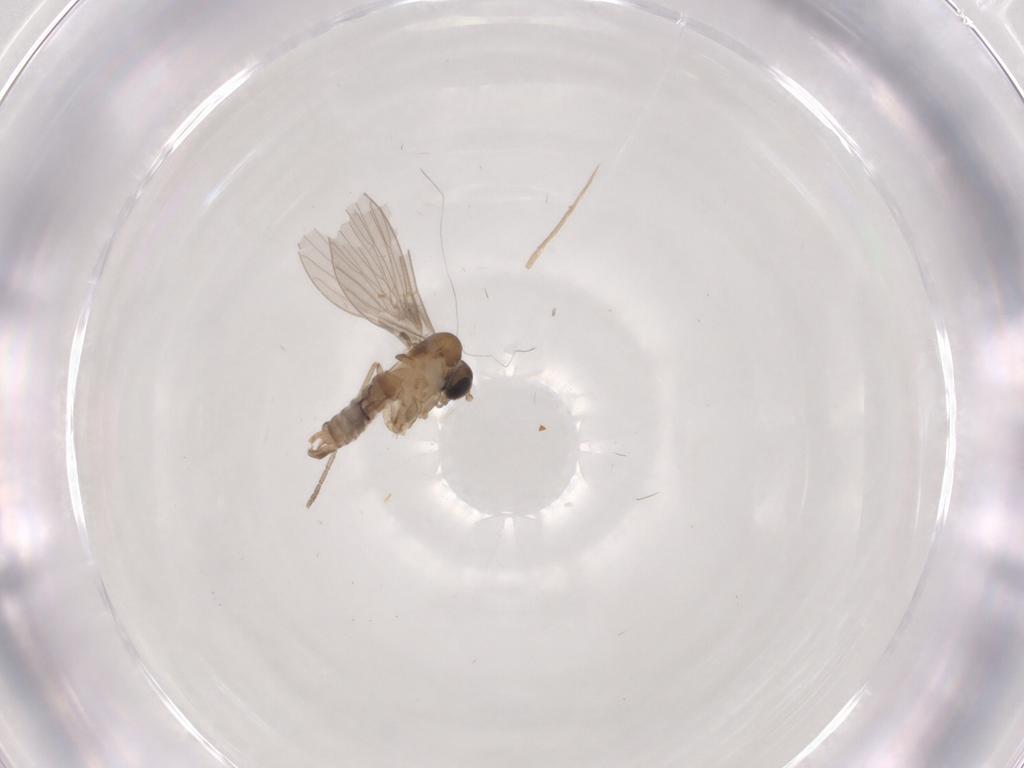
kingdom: Animalia
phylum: Arthropoda
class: Insecta
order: Diptera
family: Psychodidae
